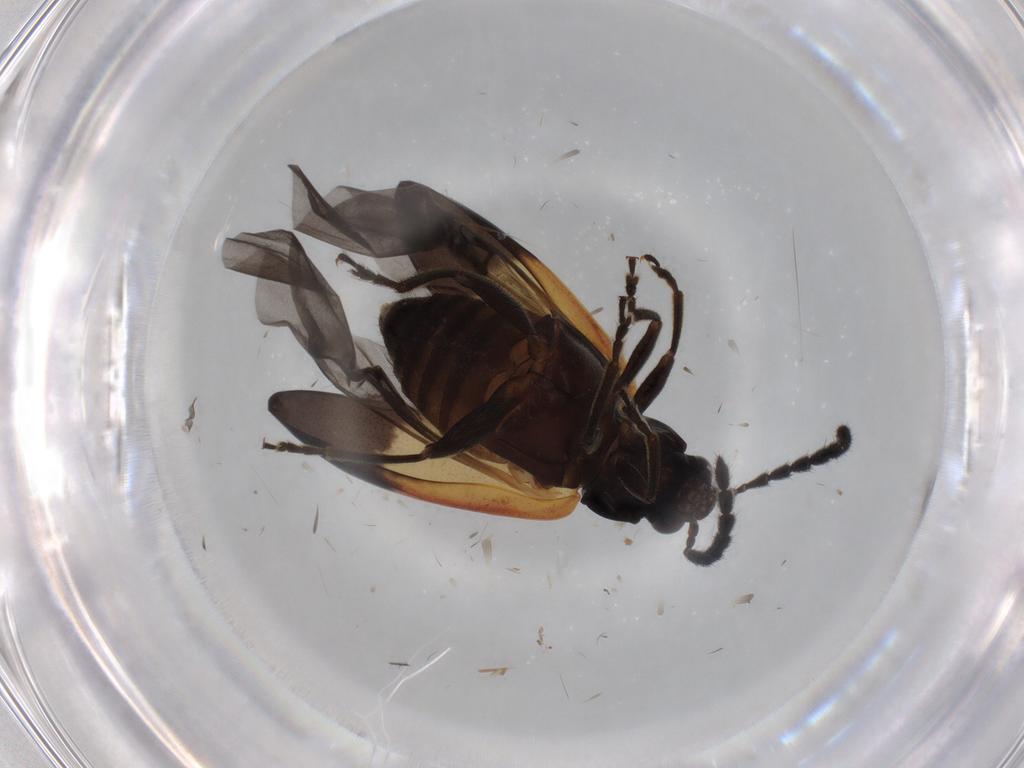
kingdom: Animalia
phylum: Arthropoda
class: Insecta
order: Coleoptera
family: Chrysomelidae
